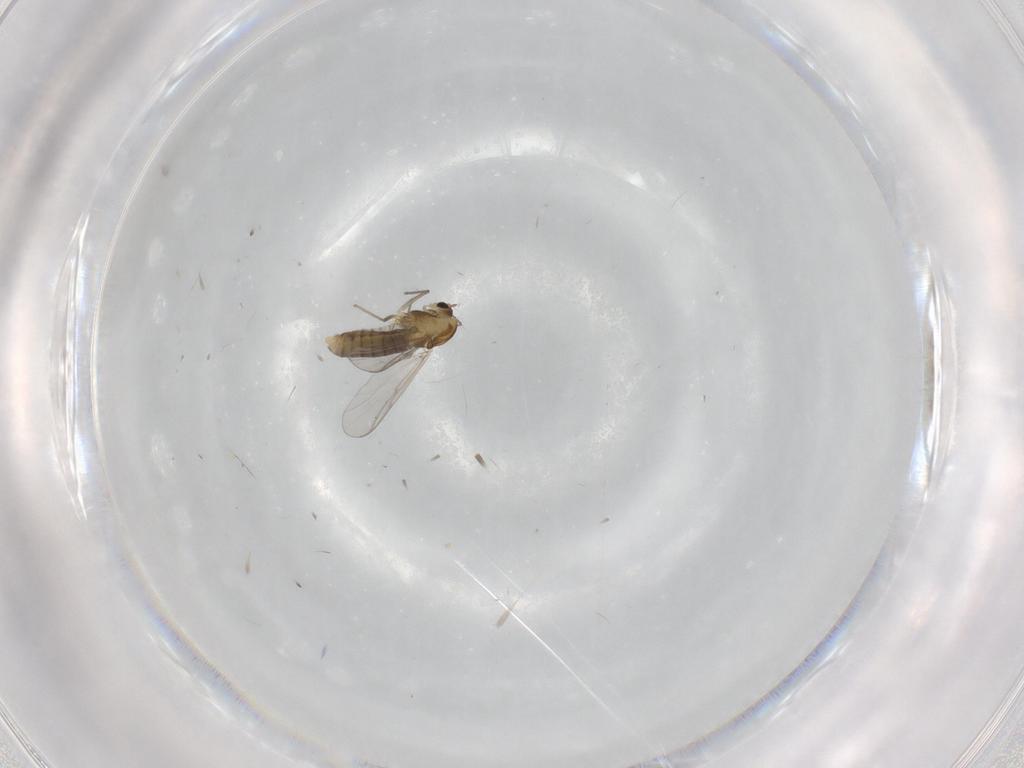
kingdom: Animalia
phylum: Arthropoda
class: Insecta
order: Diptera
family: Chironomidae
